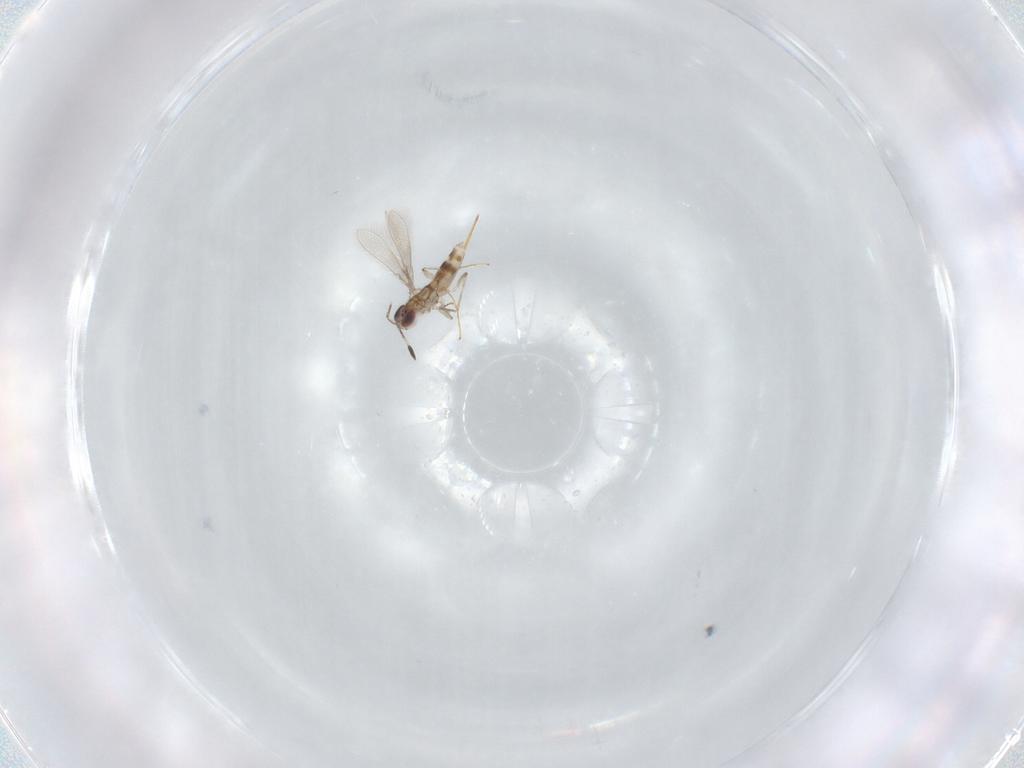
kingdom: Animalia
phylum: Arthropoda
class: Insecta
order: Hymenoptera
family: Mymaridae
